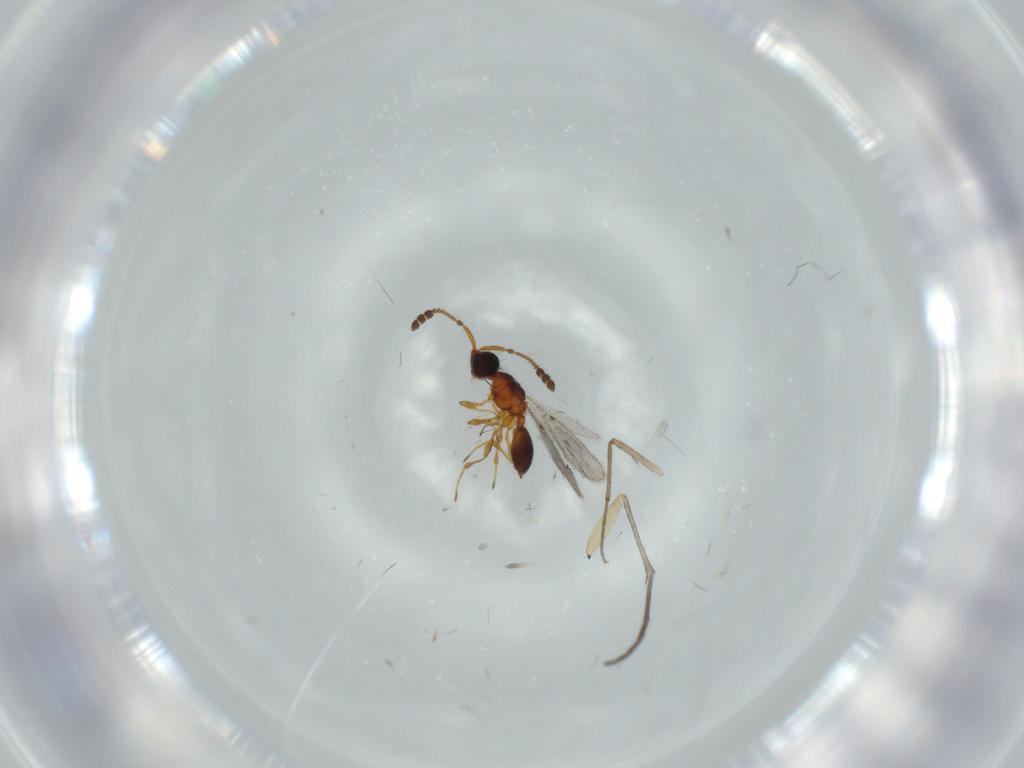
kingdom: Animalia
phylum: Arthropoda
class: Insecta
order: Hymenoptera
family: Diapriidae
